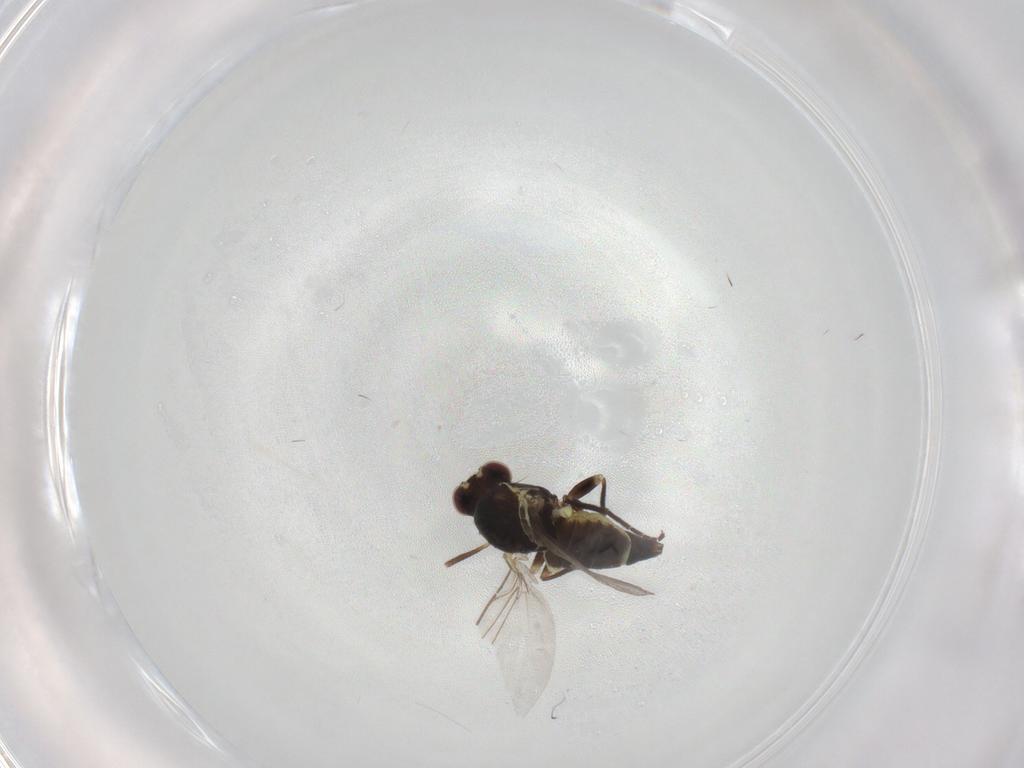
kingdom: Animalia
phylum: Arthropoda
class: Insecta
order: Diptera
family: Agromyzidae
